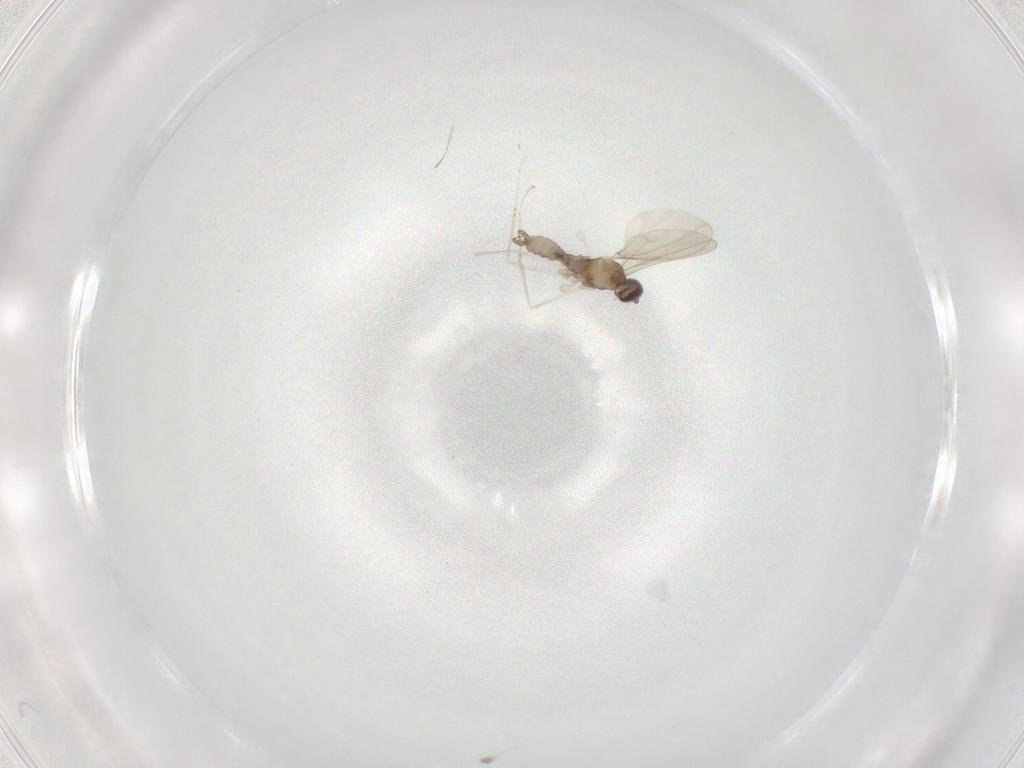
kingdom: Animalia
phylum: Arthropoda
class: Insecta
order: Diptera
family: Cecidomyiidae
